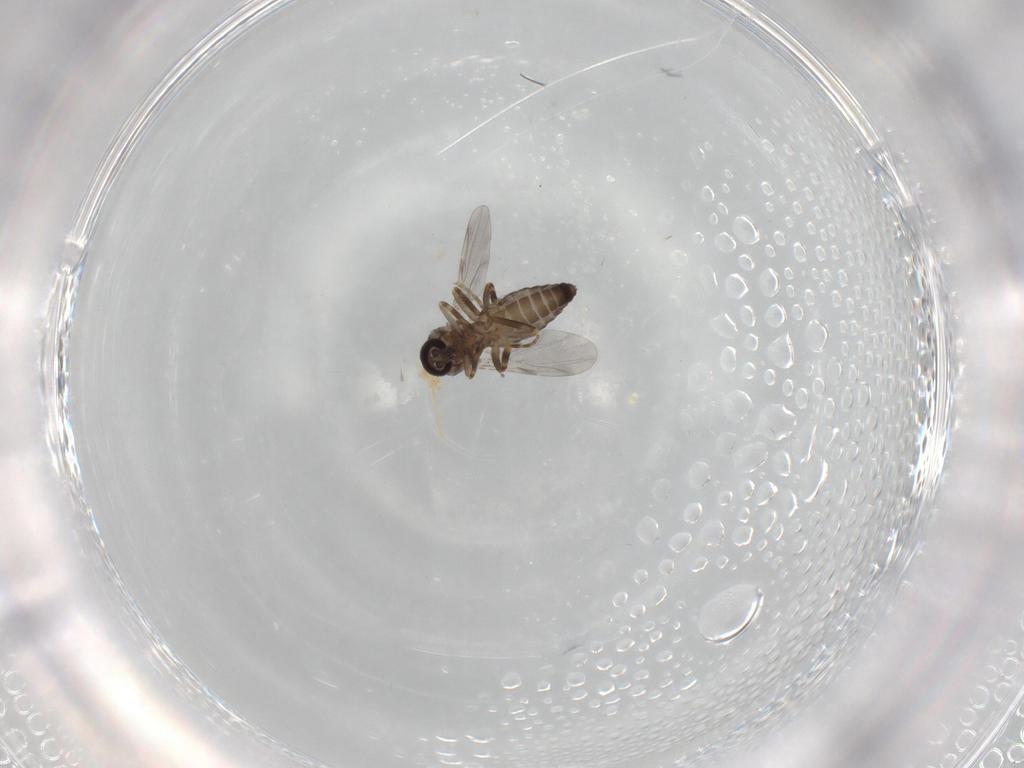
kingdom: Animalia
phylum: Arthropoda
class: Insecta
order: Diptera
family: Ceratopogonidae
